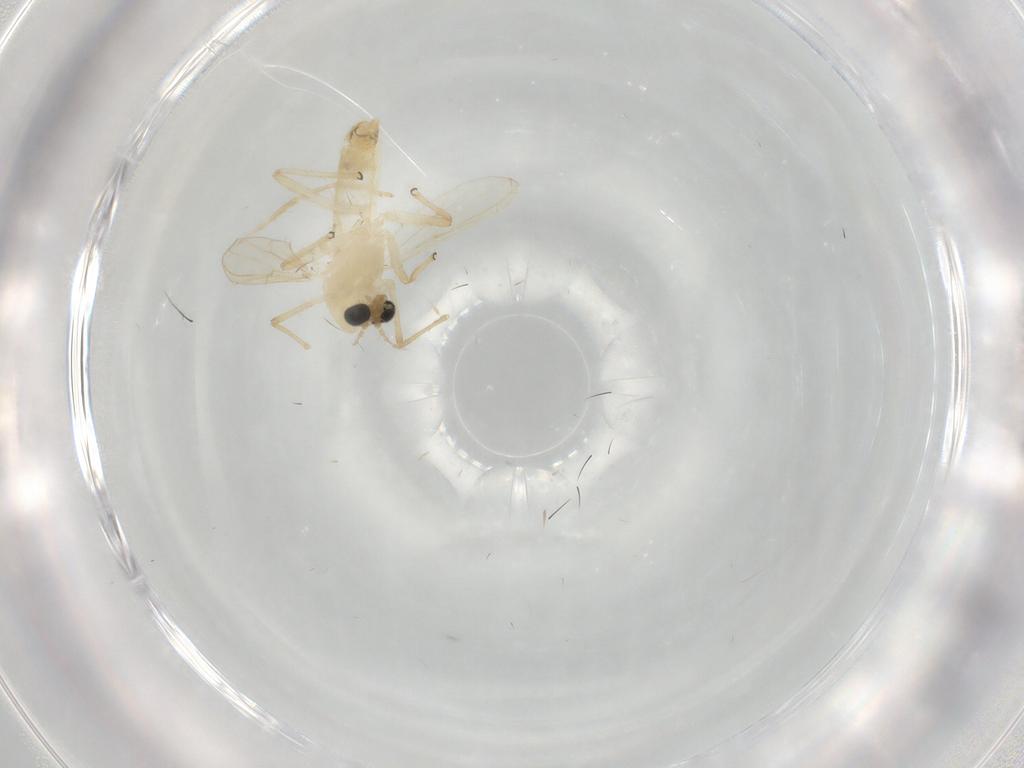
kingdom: Animalia
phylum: Arthropoda
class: Insecta
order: Diptera
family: Chironomidae
